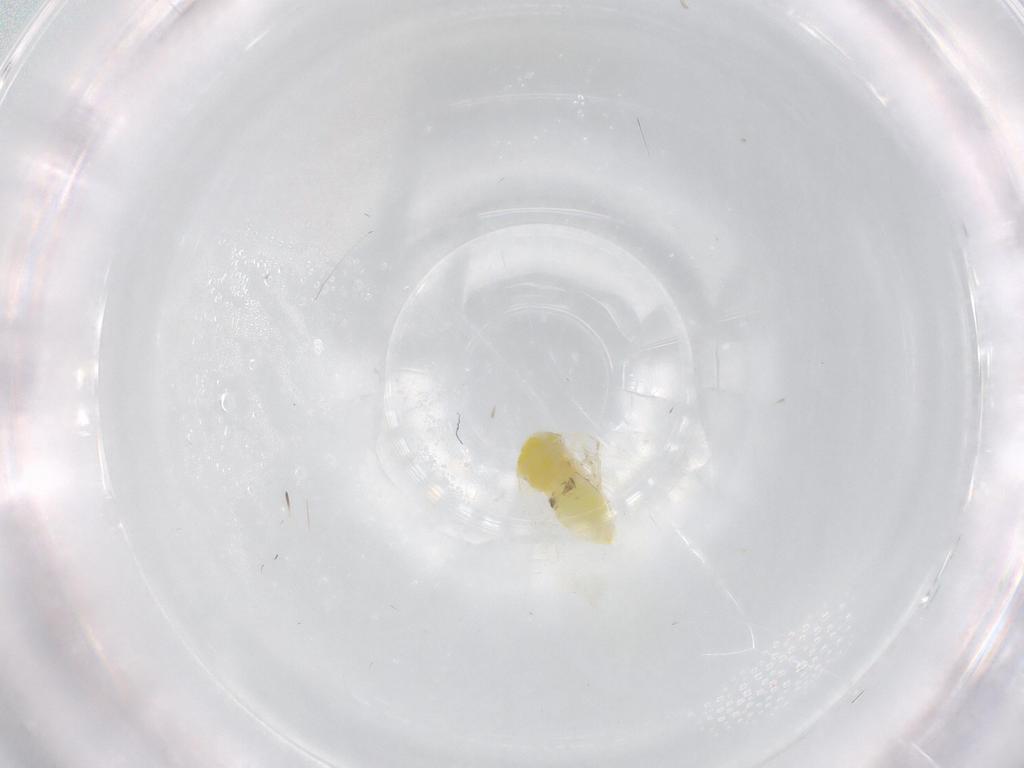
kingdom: Animalia
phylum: Arthropoda
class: Insecta
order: Hemiptera
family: Aleyrodidae
